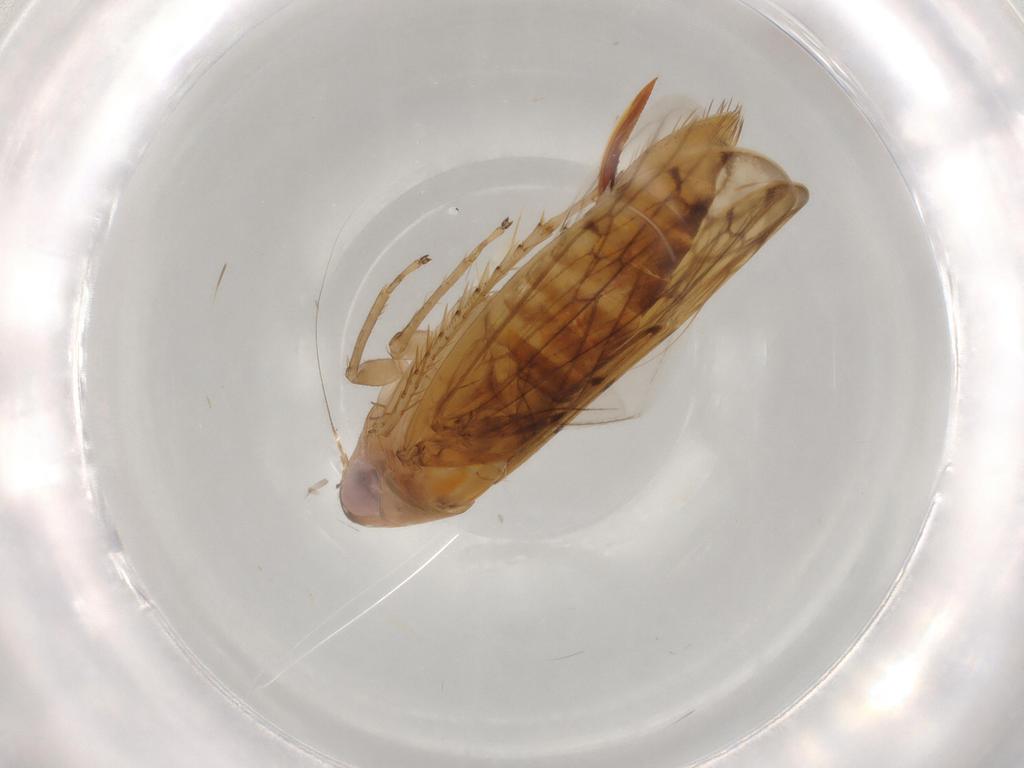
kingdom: Animalia
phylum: Arthropoda
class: Insecta
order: Hemiptera
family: Cicadellidae
